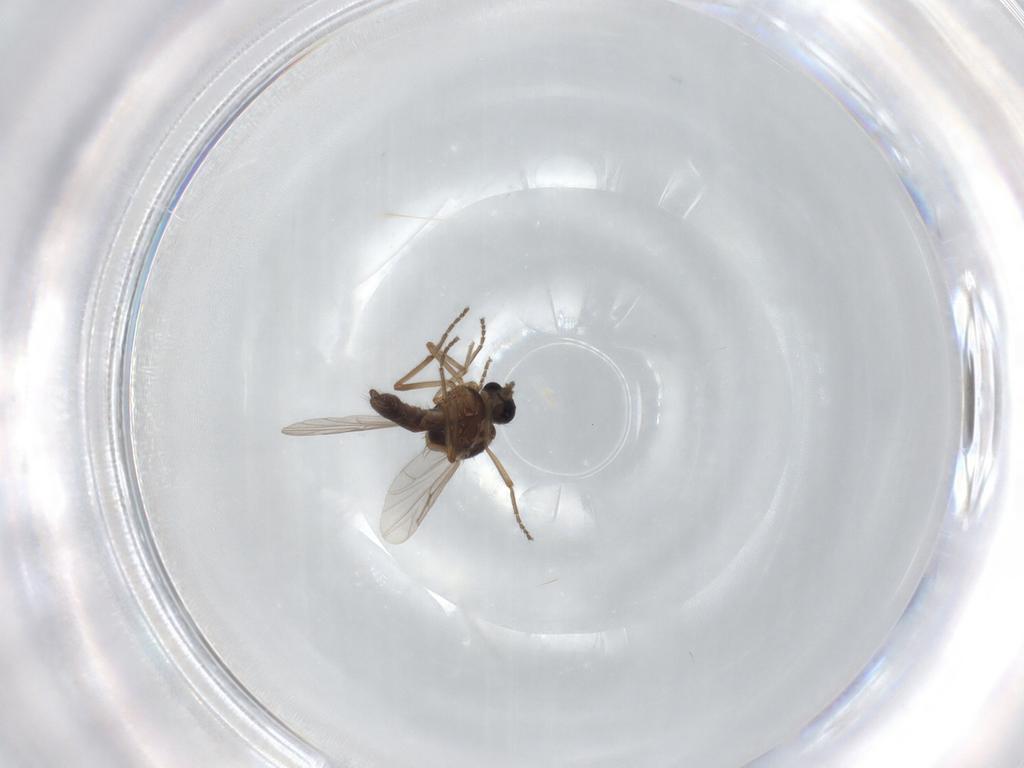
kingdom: Animalia
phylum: Arthropoda
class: Insecta
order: Diptera
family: Ceratopogonidae
